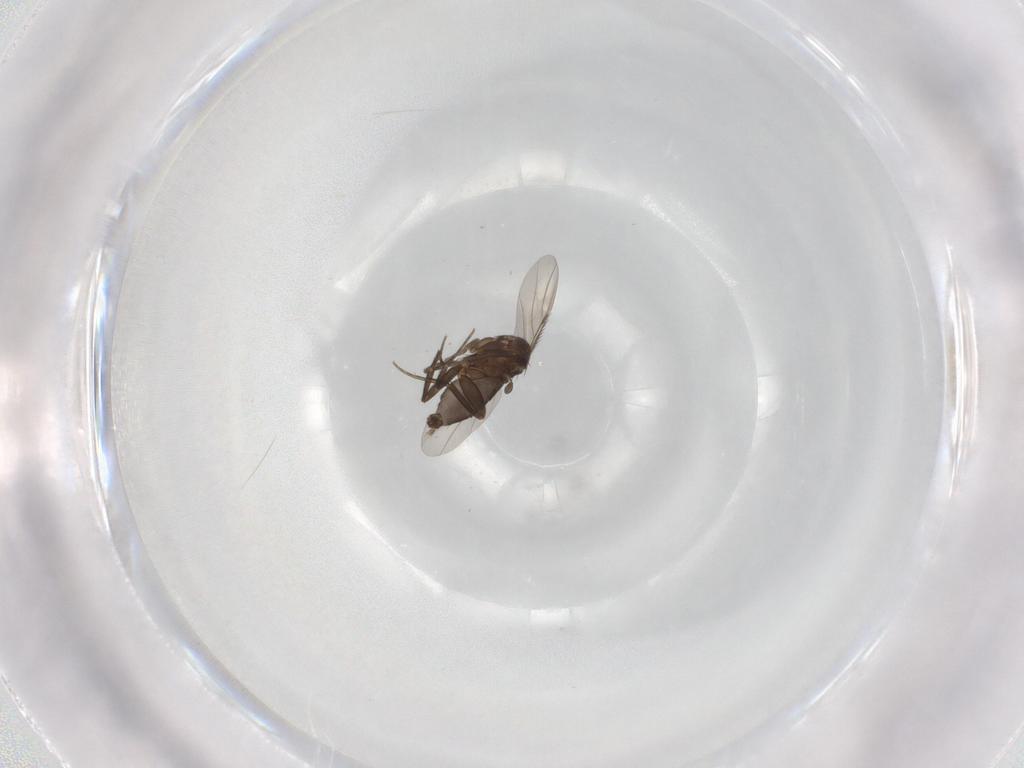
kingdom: Animalia
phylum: Arthropoda
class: Insecta
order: Diptera
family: Phoridae
